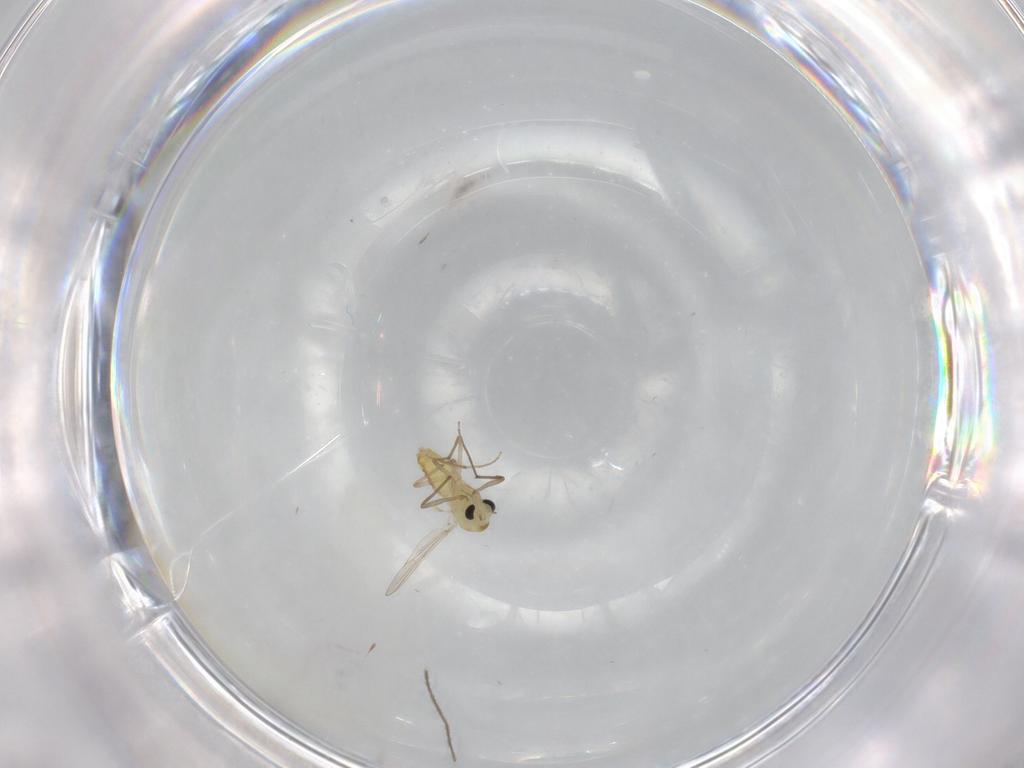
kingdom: Animalia
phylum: Arthropoda
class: Insecta
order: Diptera
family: Chironomidae
